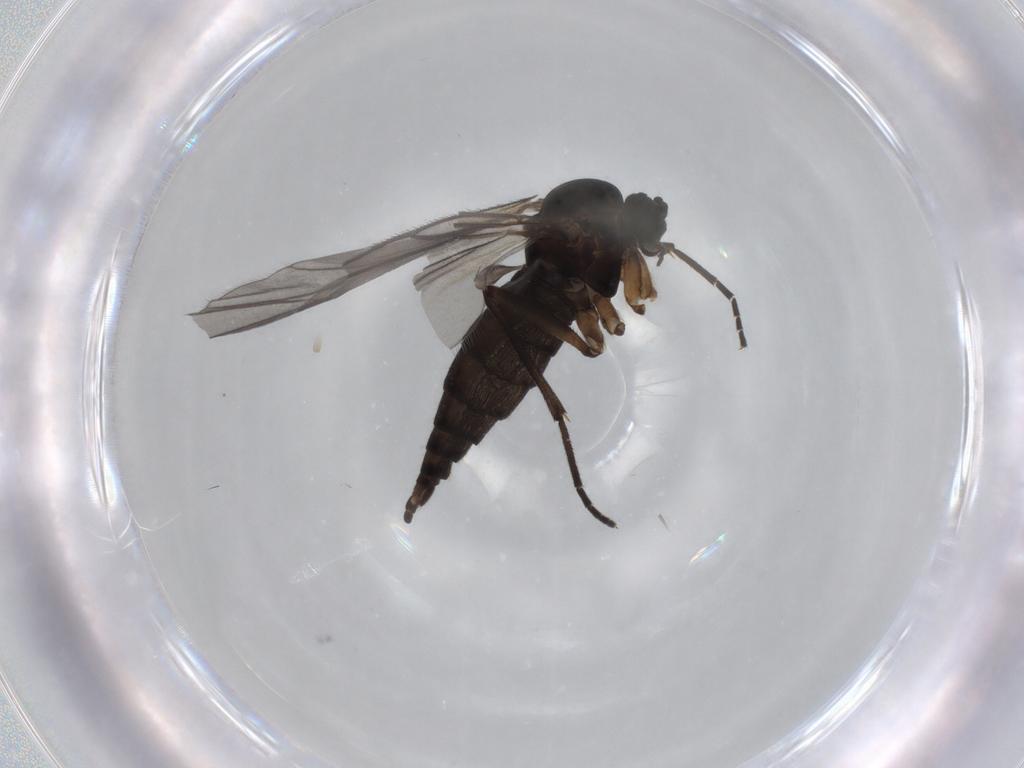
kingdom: Animalia
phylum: Arthropoda
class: Insecta
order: Diptera
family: Sciaridae
